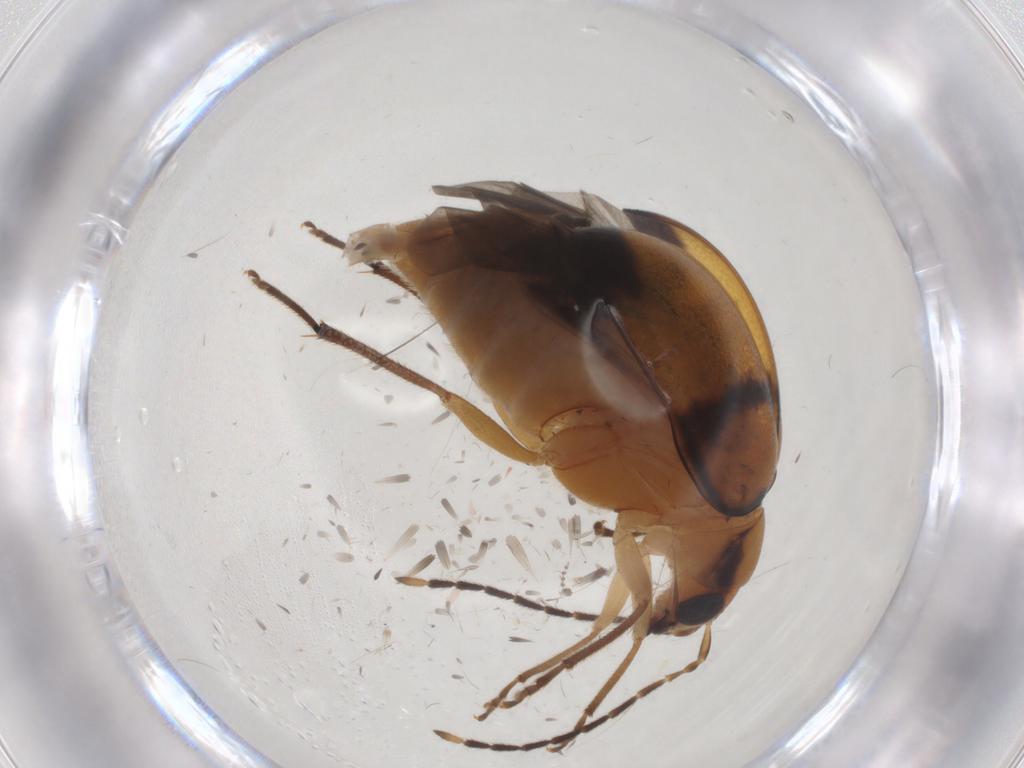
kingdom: Animalia
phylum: Arthropoda
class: Insecta
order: Coleoptera
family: Chrysomelidae
